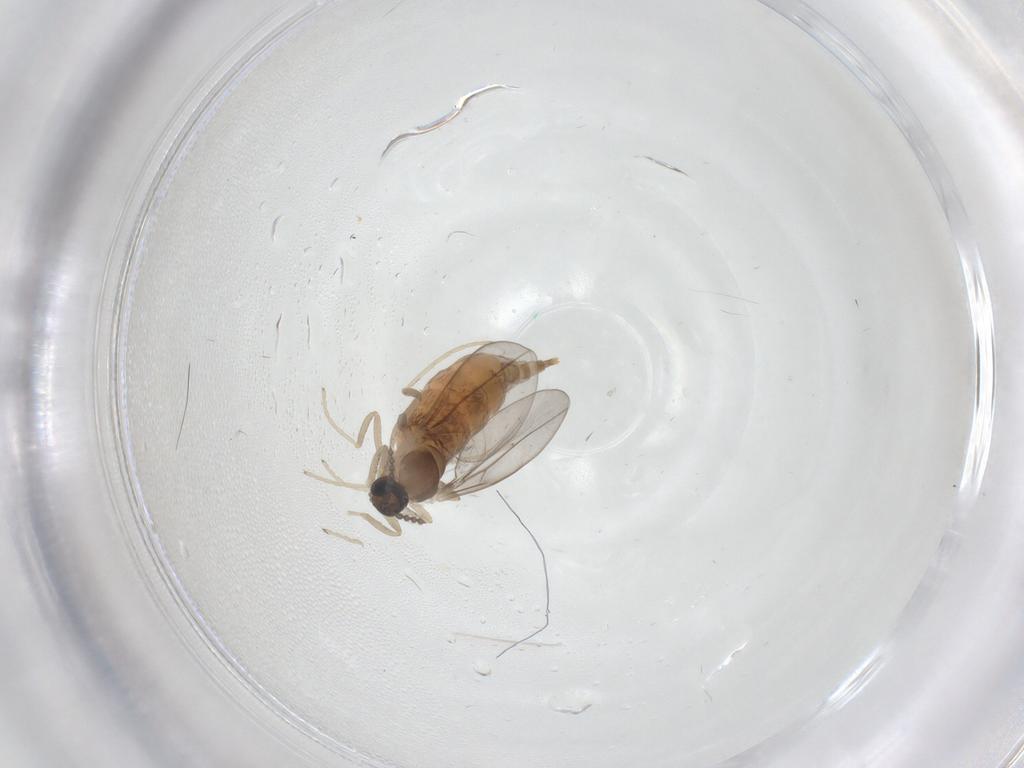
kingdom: Animalia
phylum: Arthropoda
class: Insecta
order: Diptera
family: Cecidomyiidae
